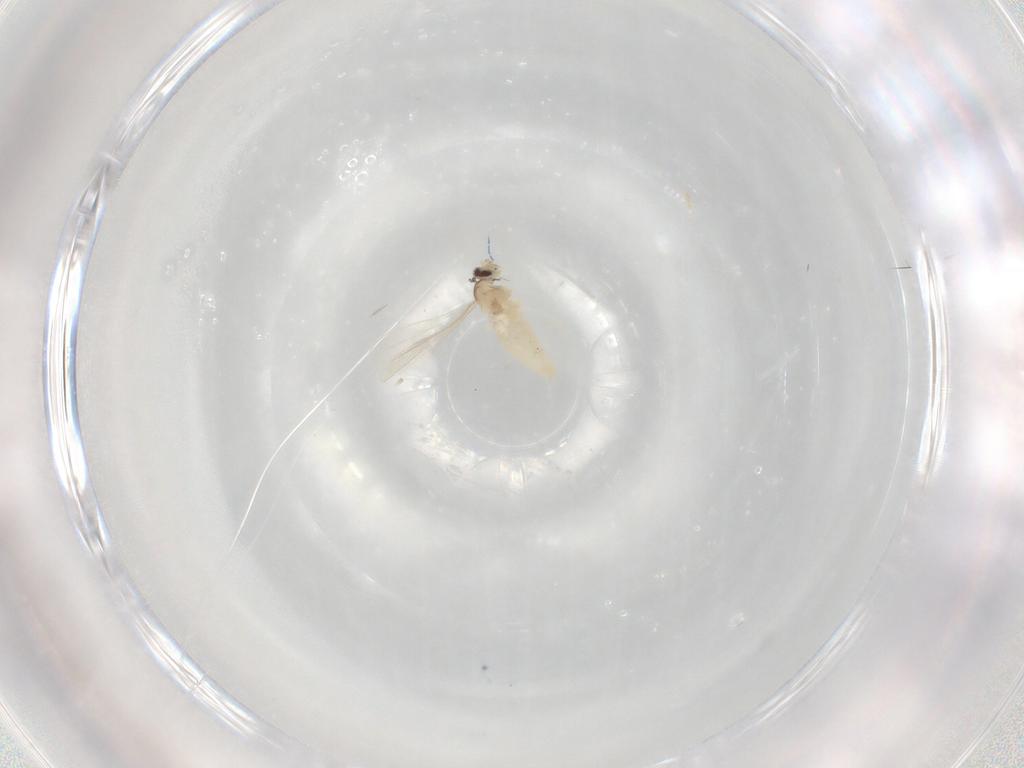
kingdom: Animalia
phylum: Arthropoda
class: Insecta
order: Diptera
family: Cecidomyiidae
